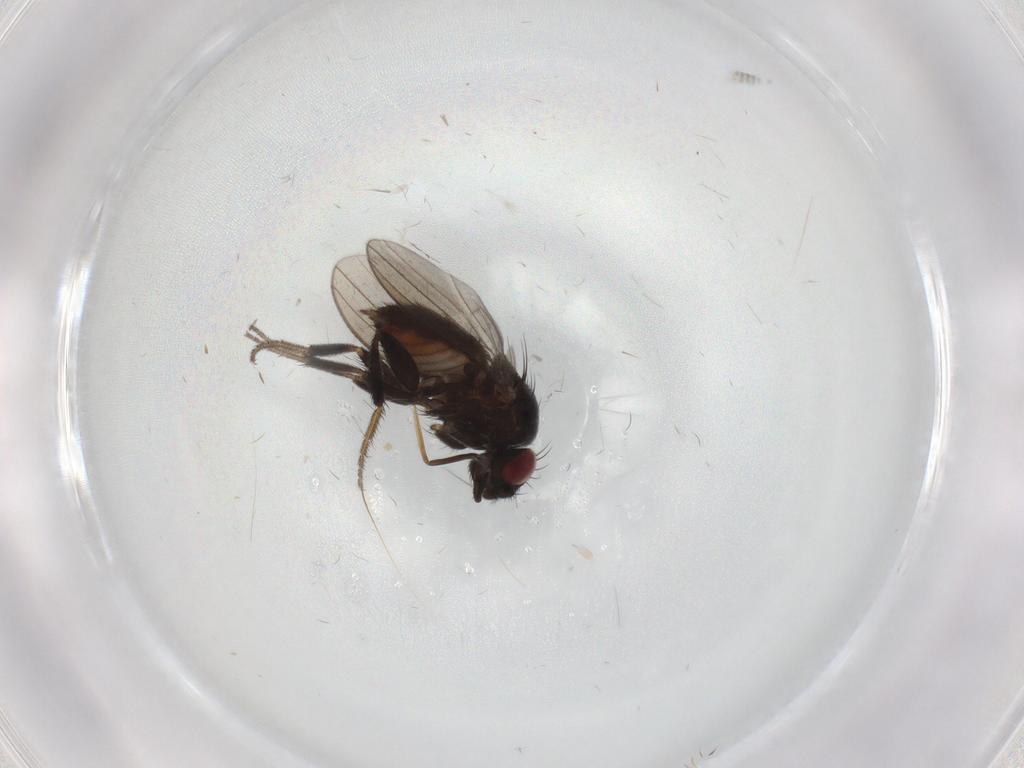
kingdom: Animalia
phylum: Arthropoda
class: Insecta
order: Diptera
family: Milichiidae
